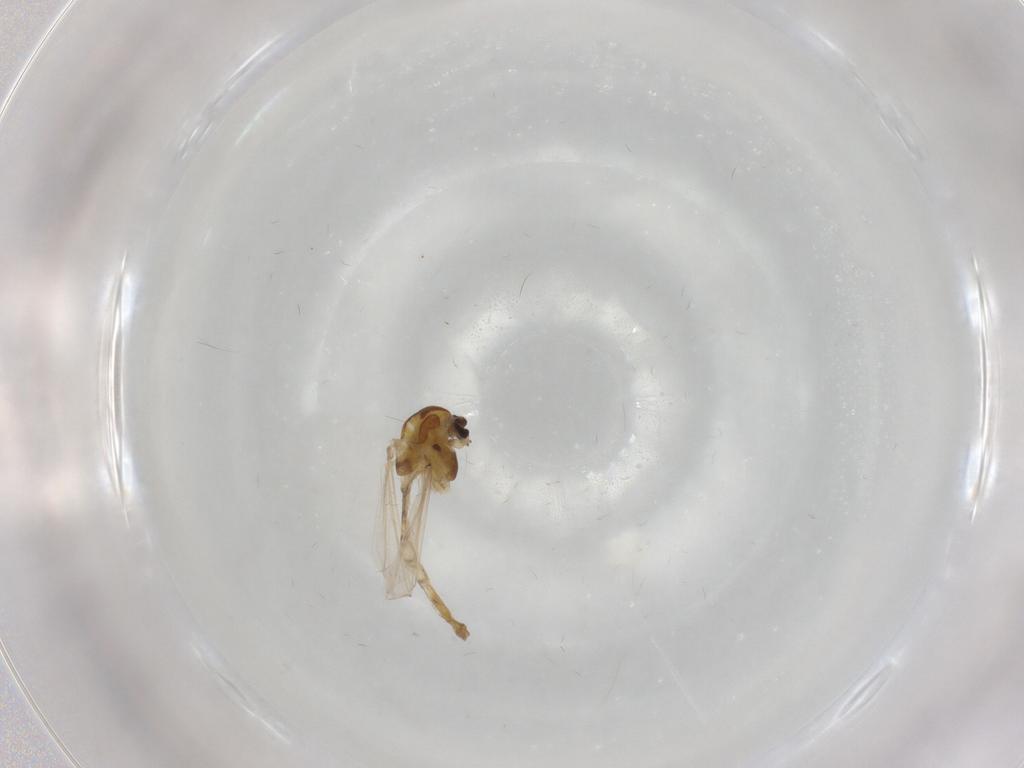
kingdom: Animalia
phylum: Arthropoda
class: Insecta
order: Diptera
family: Chironomidae
